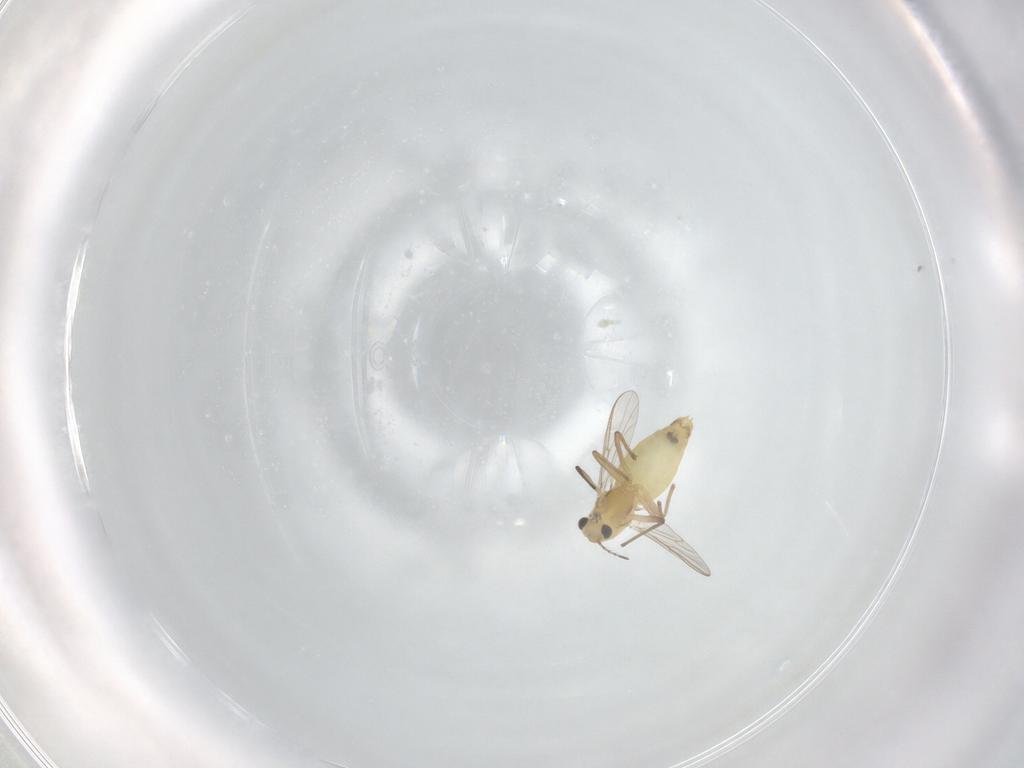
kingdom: Animalia
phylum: Arthropoda
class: Insecta
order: Diptera
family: Chironomidae
